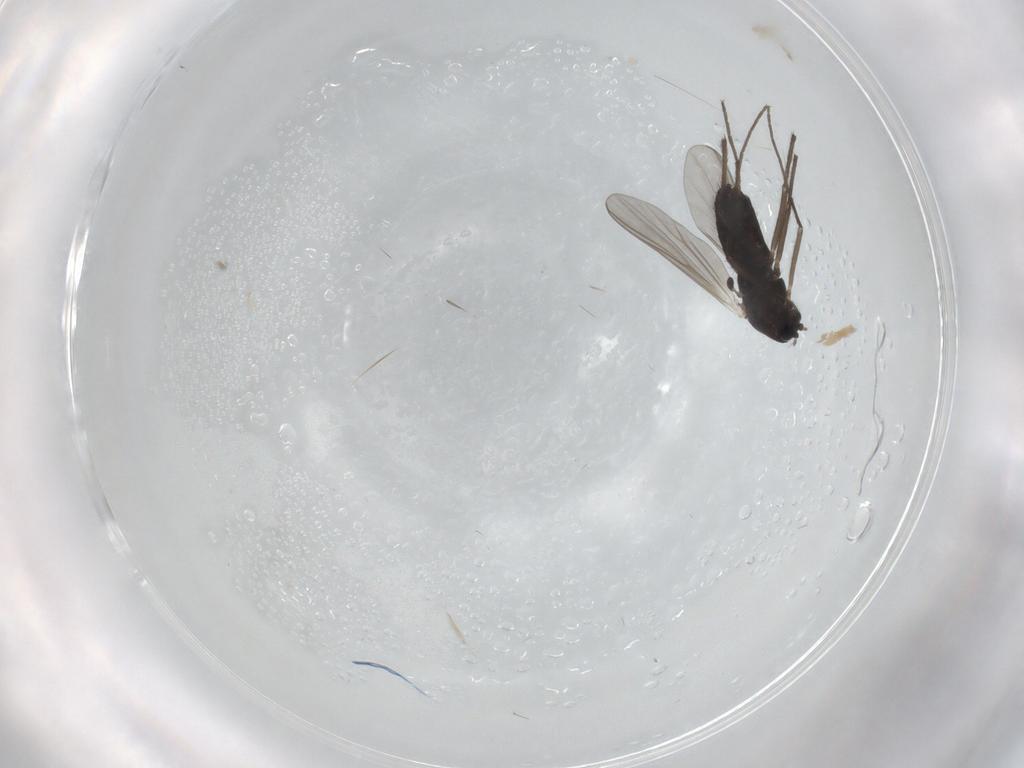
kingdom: Animalia
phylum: Arthropoda
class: Insecta
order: Diptera
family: Chironomidae
